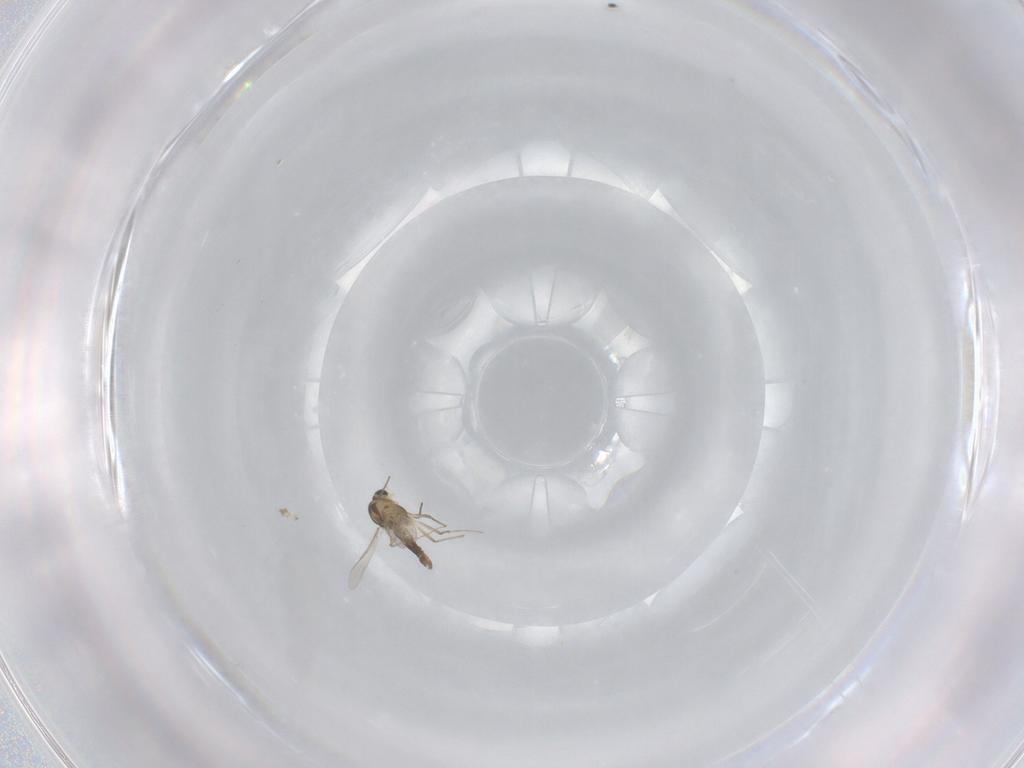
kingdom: Animalia
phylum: Arthropoda
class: Insecta
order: Diptera
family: Chironomidae
